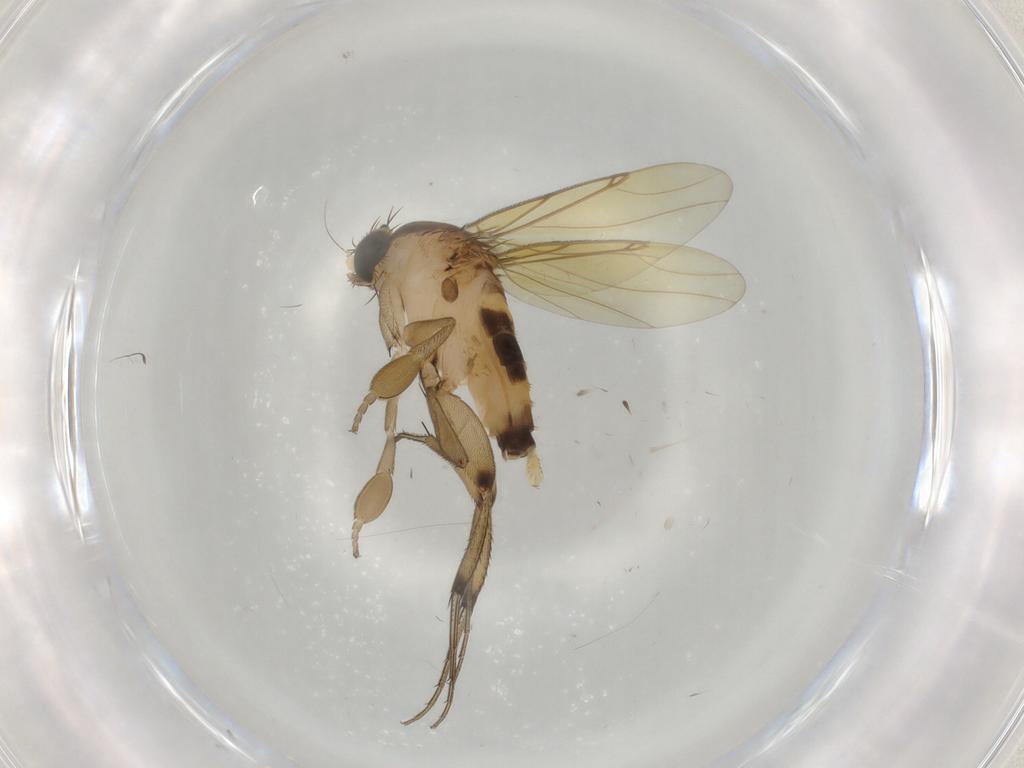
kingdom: Animalia
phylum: Arthropoda
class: Insecta
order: Diptera
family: Phoridae
